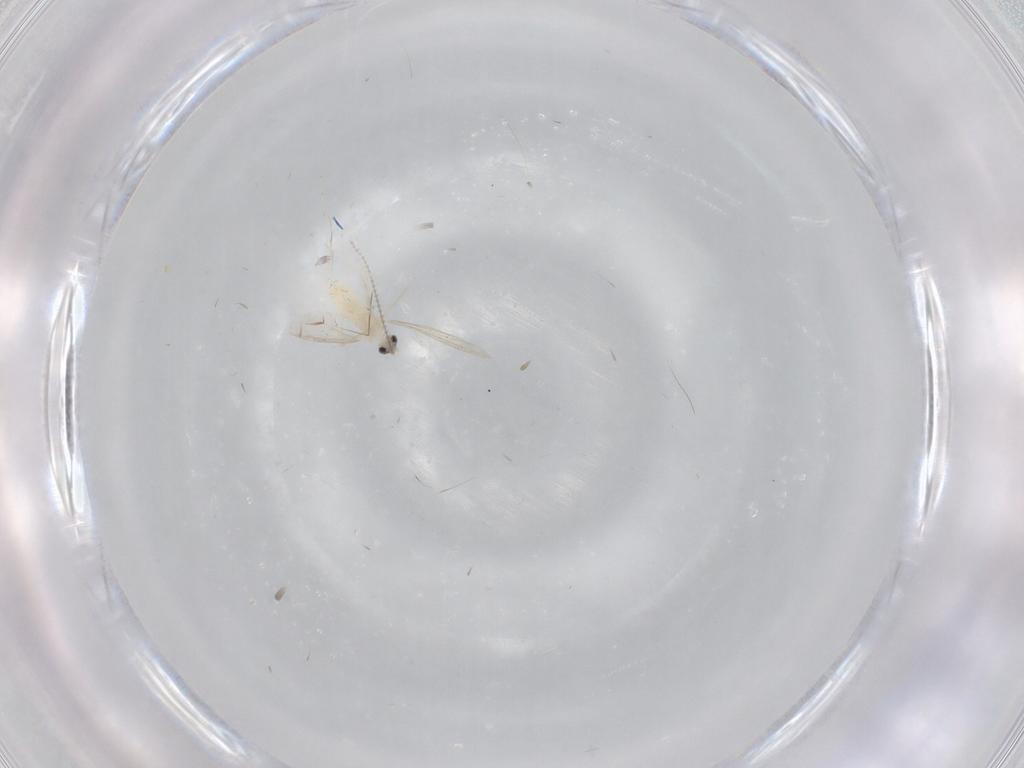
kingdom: Animalia
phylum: Arthropoda
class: Insecta
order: Diptera
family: Cecidomyiidae
